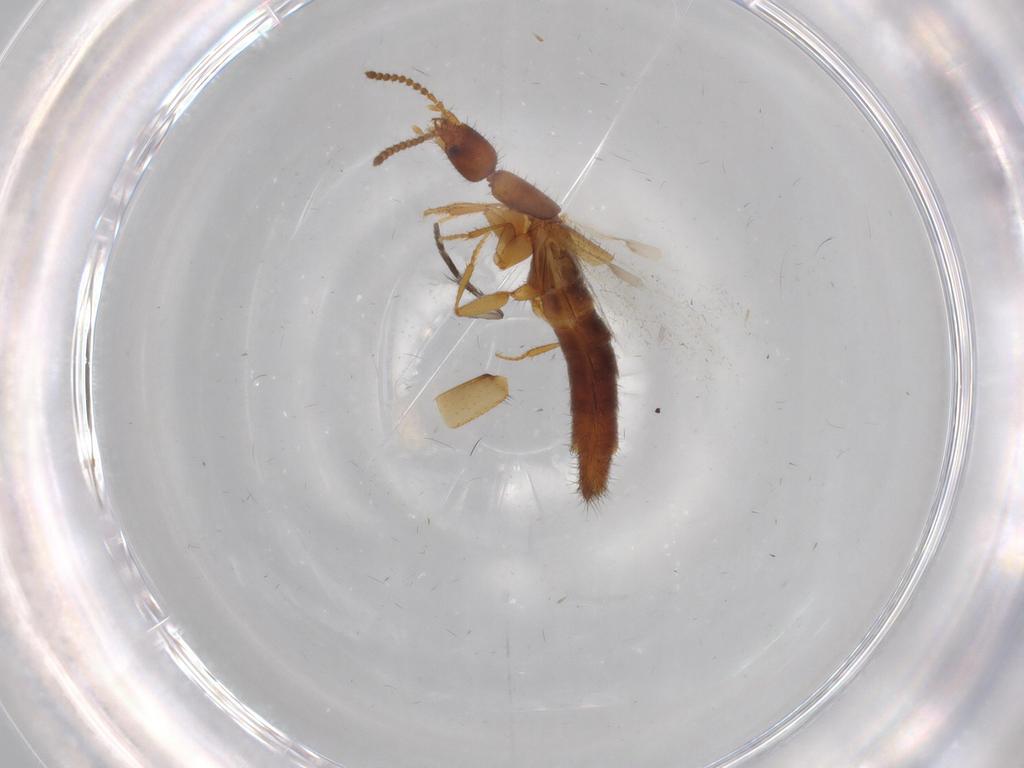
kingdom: Animalia
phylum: Arthropoda
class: Insecta
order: Coleoptera
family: Staphylinidae
